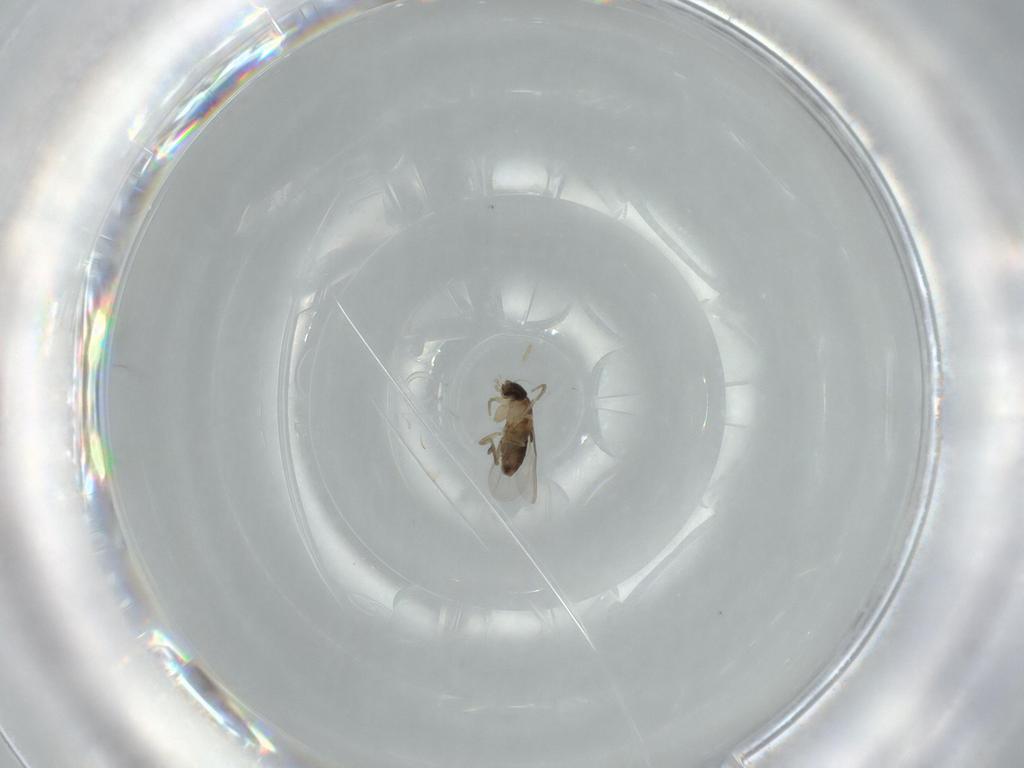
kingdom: Animalia
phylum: Arthropoda
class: Insecta
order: Diptera
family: Phoridae
